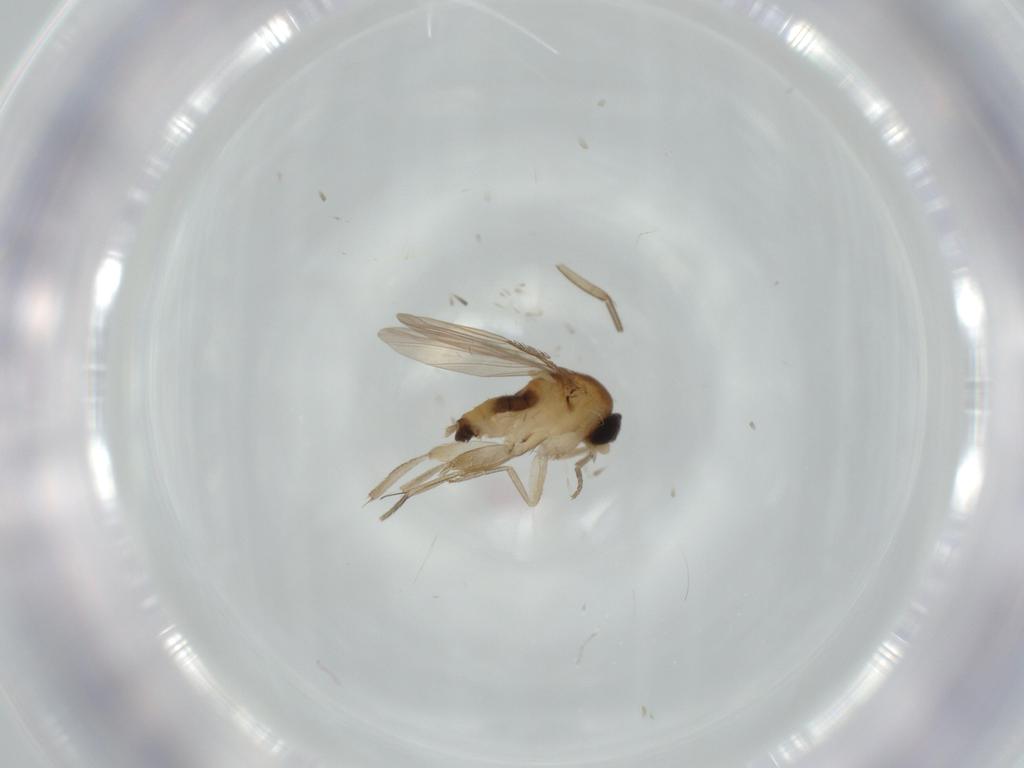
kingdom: Animalia
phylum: Arthropoda
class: Insecta
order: Diptera
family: Phoridae
